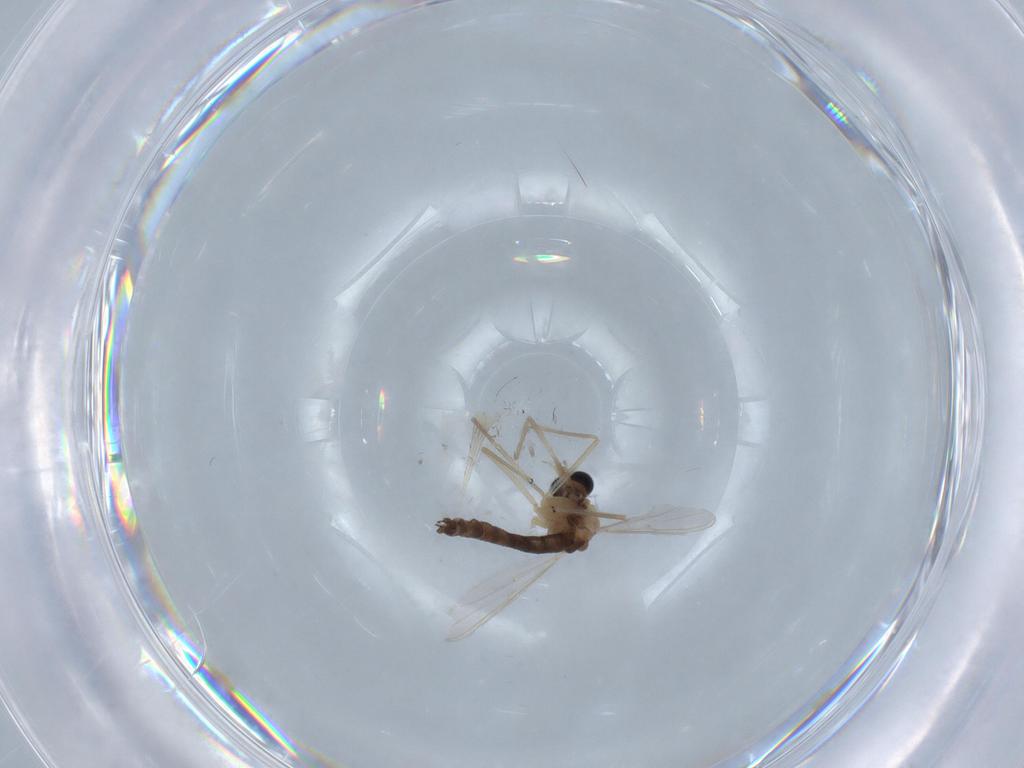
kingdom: Animalia
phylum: Arthropoda
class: Insecta
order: Diptera
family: Chironomidae
